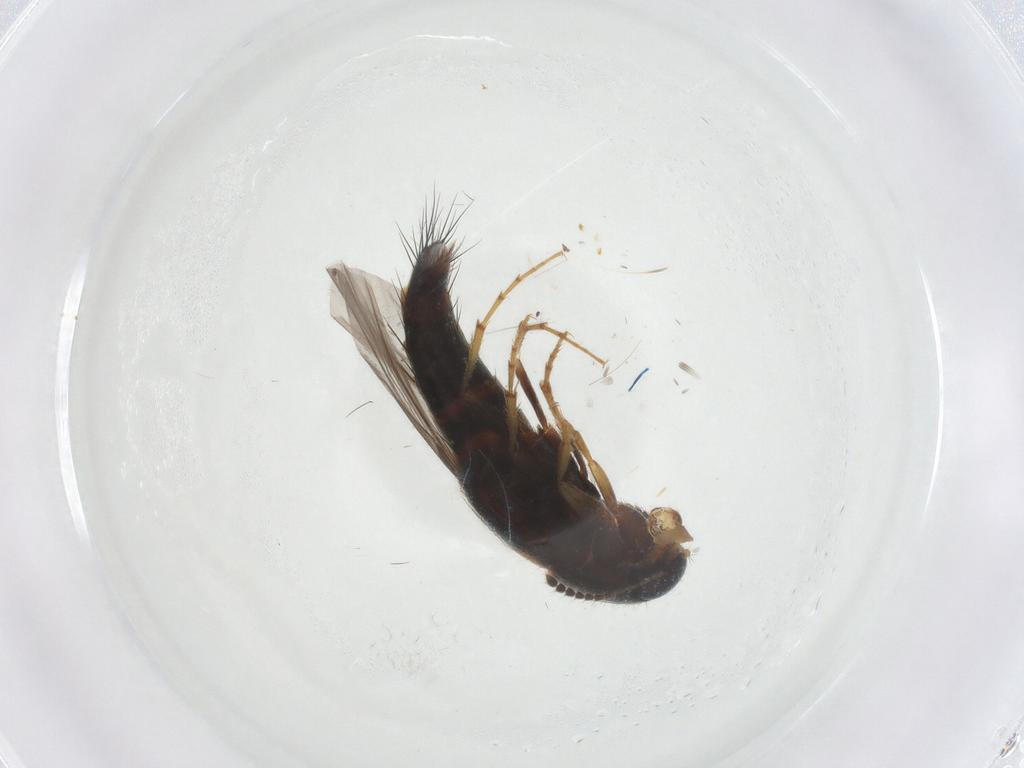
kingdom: Animalia
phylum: Arthropoda
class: Insecta
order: Coleoptera
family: Staphylinidae
